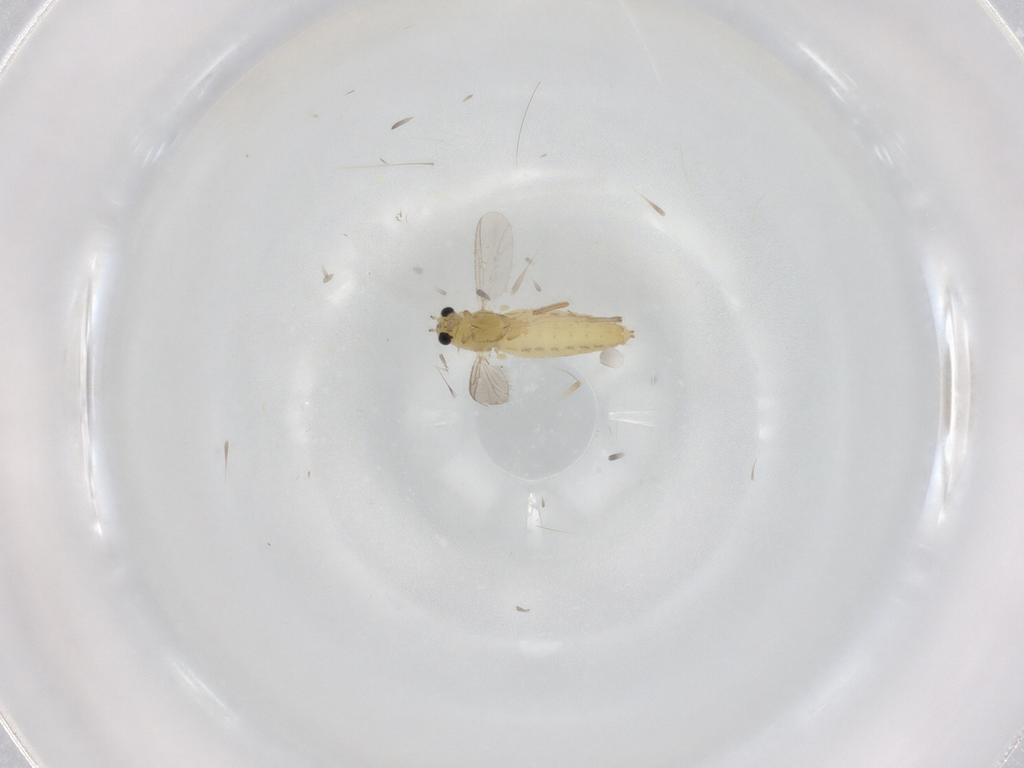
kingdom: Animalia
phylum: Arthropoda
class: Insecta
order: Diptera
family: Chironomidae
